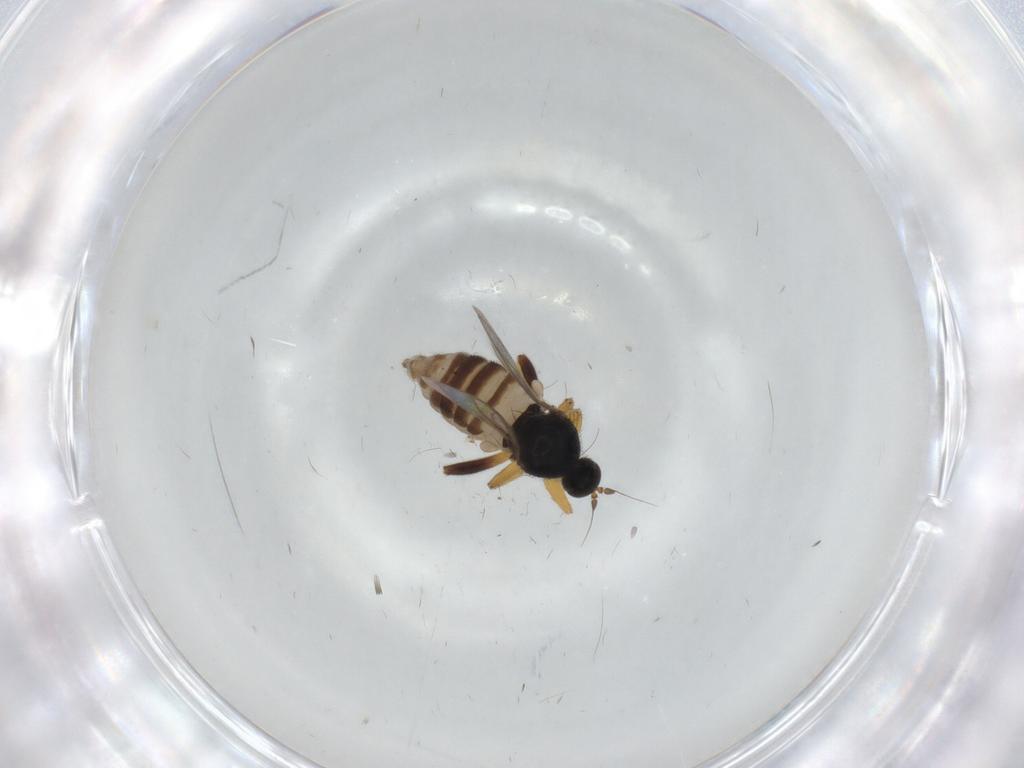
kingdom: Animalia
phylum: Arthropoda
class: Insecta
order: Diptera
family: Hybotidae
